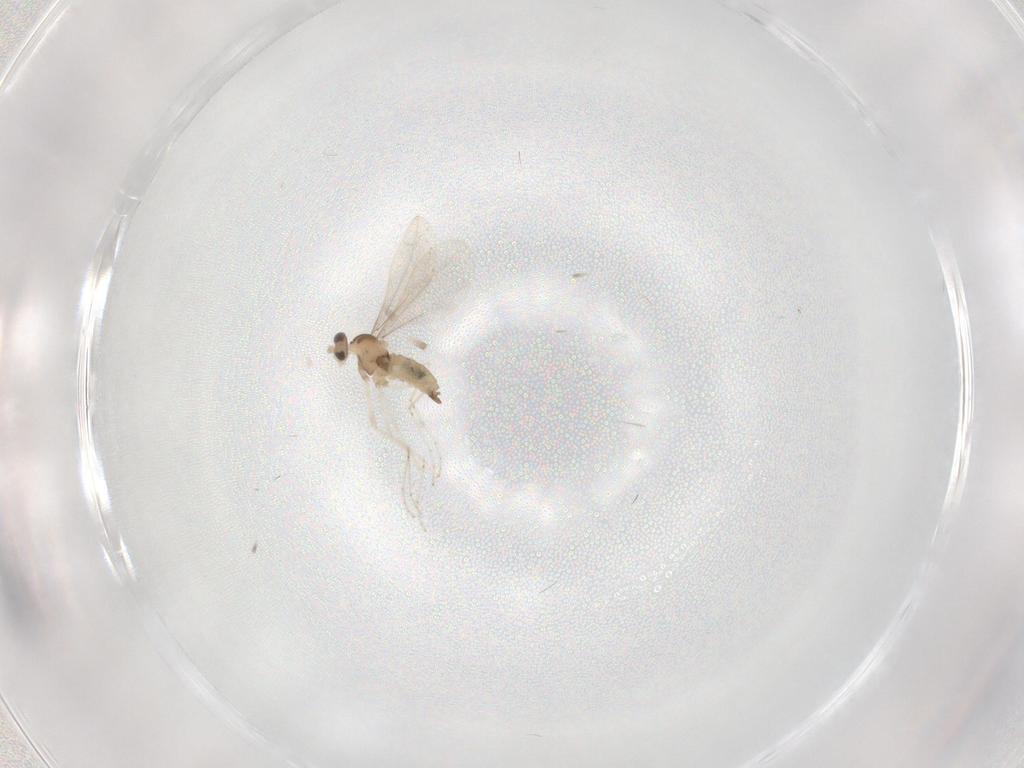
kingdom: Animalia
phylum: Arthropoda
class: Insecta
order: Diptera
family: Cecidomyiidae
